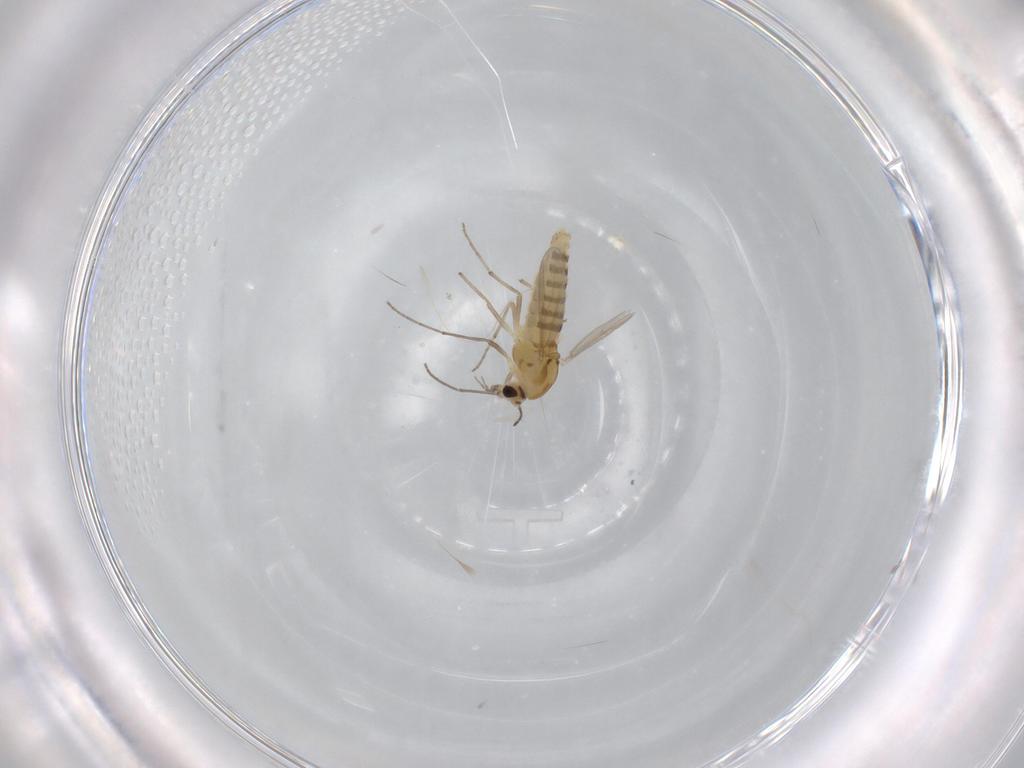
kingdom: Animalia
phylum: Arthropoda
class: Insecta
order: Diptera
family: Chironomidae
